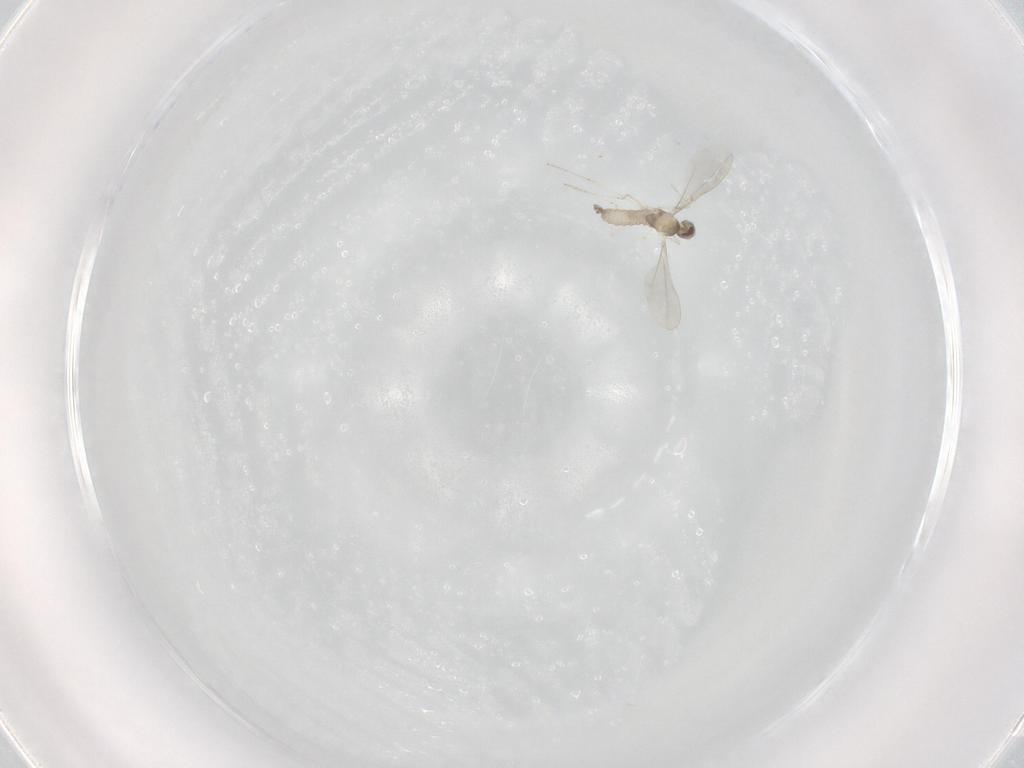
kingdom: Animalia
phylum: Arthropoda
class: Insecta
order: Diptera
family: Cecidomyiidae
